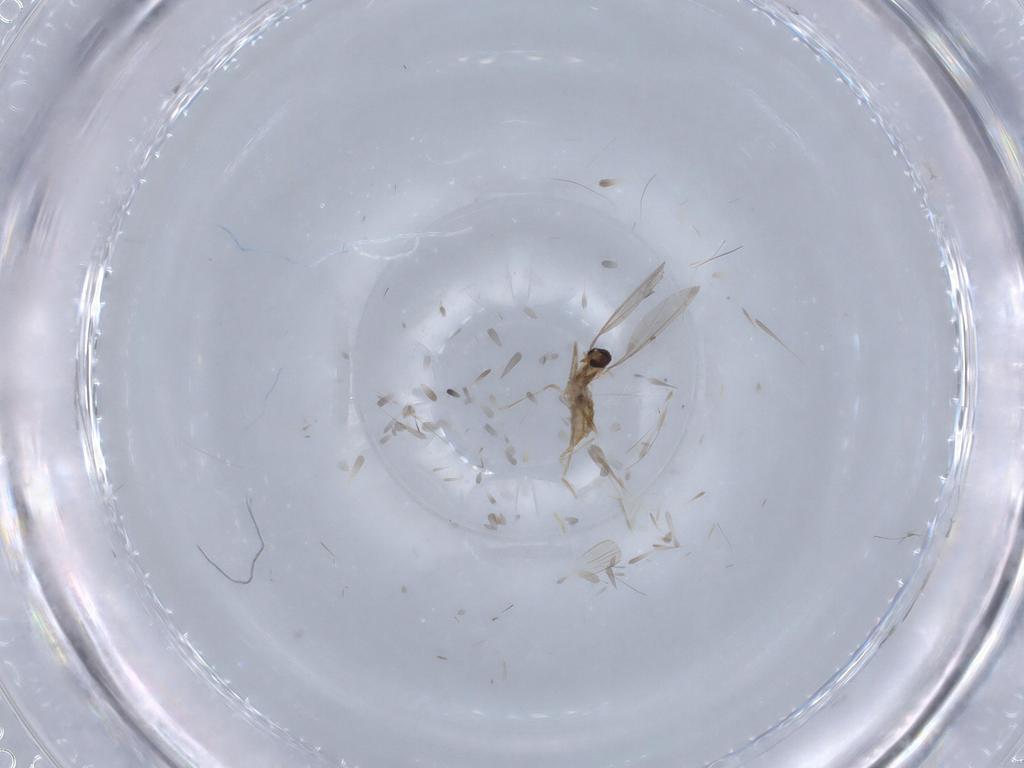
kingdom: Animalia
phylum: Arthropoda
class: Insecta
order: Diptera
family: Cecidomyiidae
